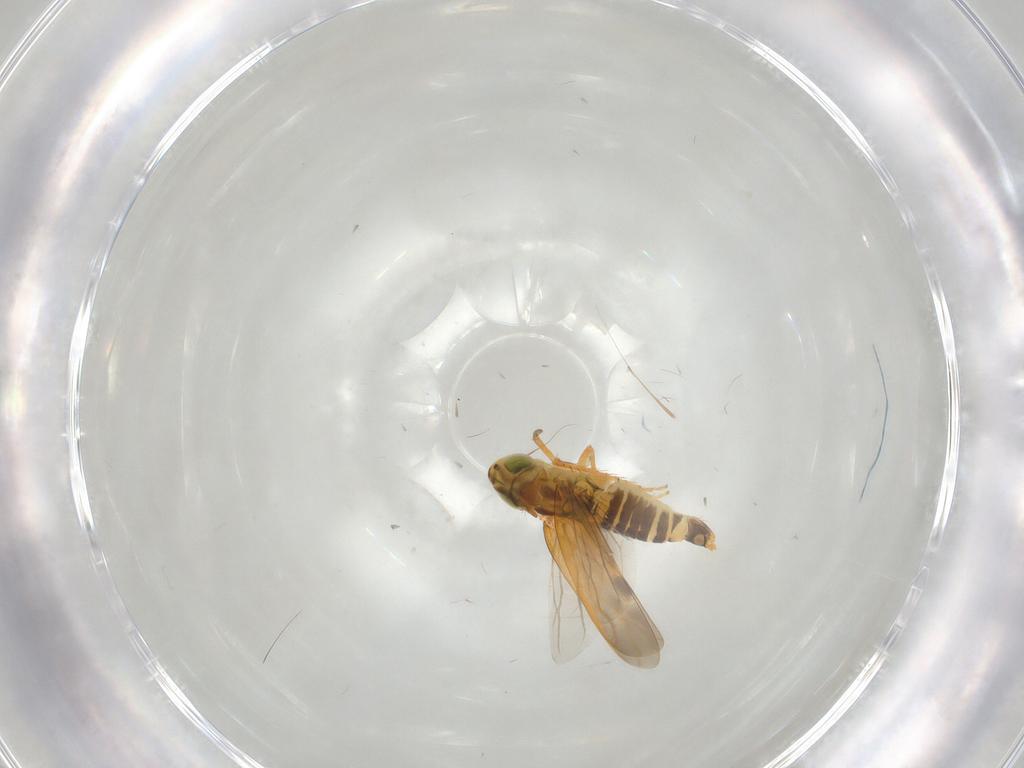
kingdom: Animalia
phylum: Arthropoda
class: Insecta
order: Hemiptera
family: Cicadellidae
